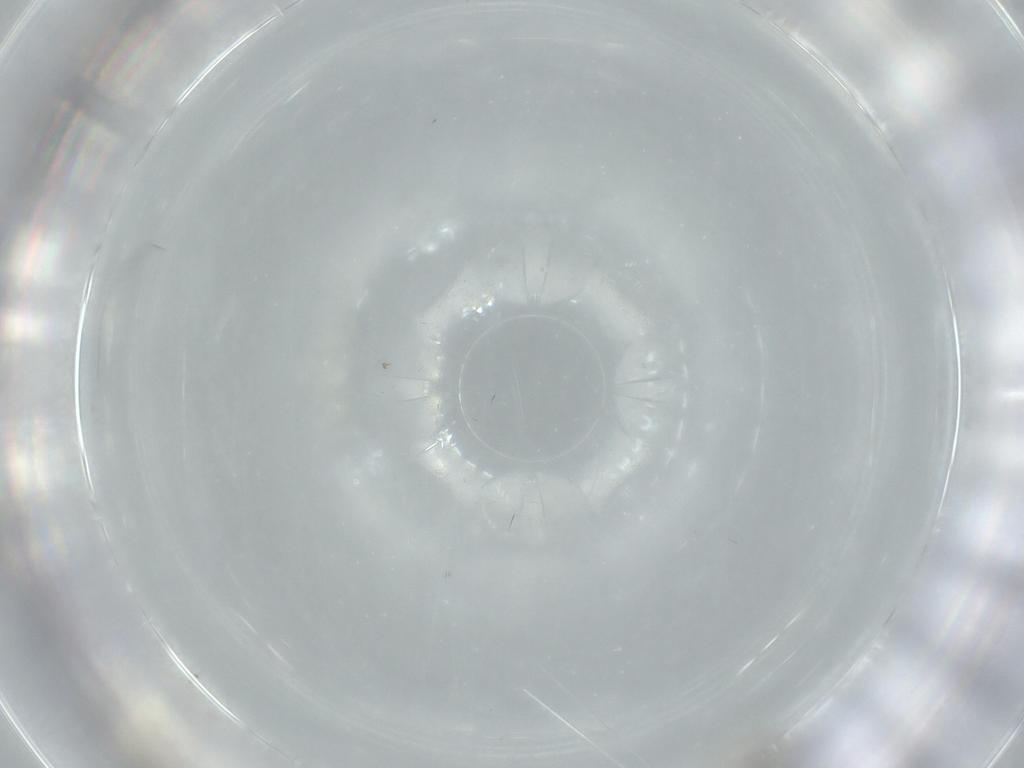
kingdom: Animalia
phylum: Arthropoda
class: Insecta
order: Diptera
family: Cecidomyiidae
